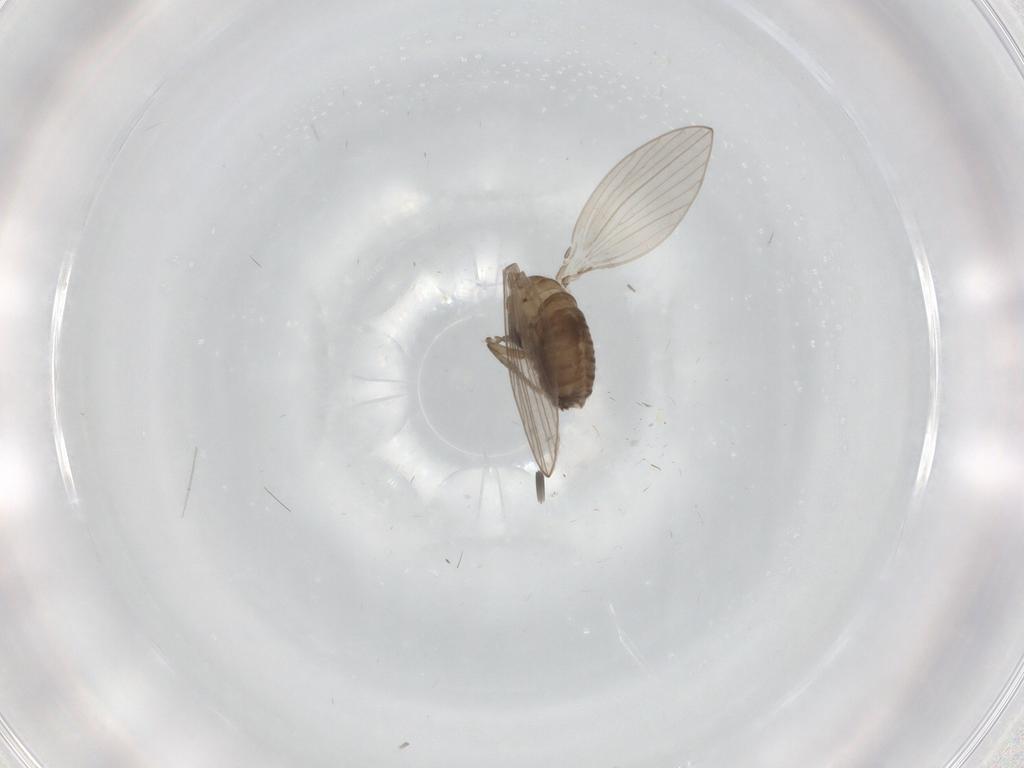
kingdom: Animalia
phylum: Arthropoda
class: Insecta
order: Diptera
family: Psychodidae
